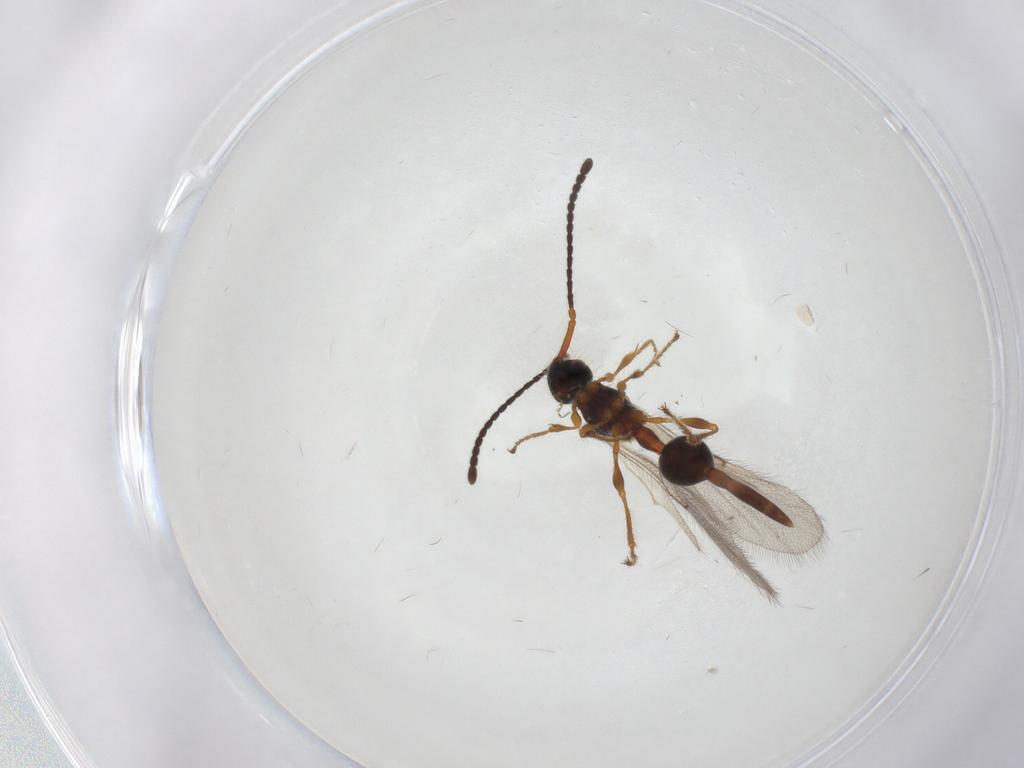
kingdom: Animalia
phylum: Arthropoda
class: Insecta
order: Hymenoptera
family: Diapriidae
